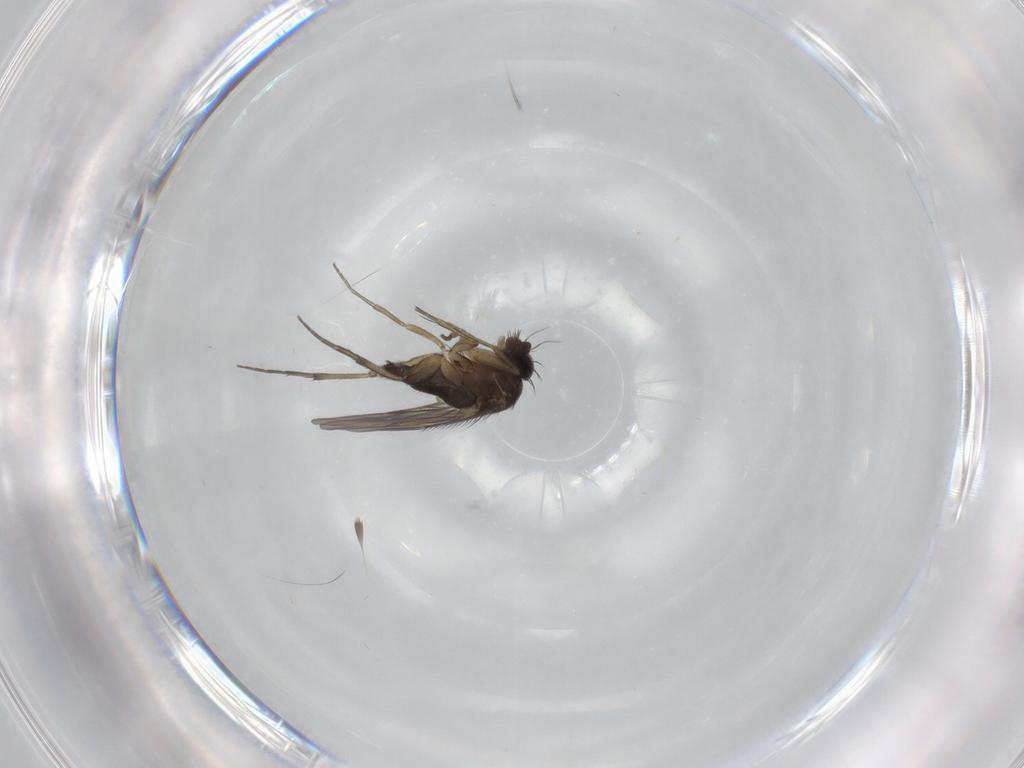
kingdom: Animalia
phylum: Arthropoda
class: Insecta
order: Diptera
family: Phoridae
